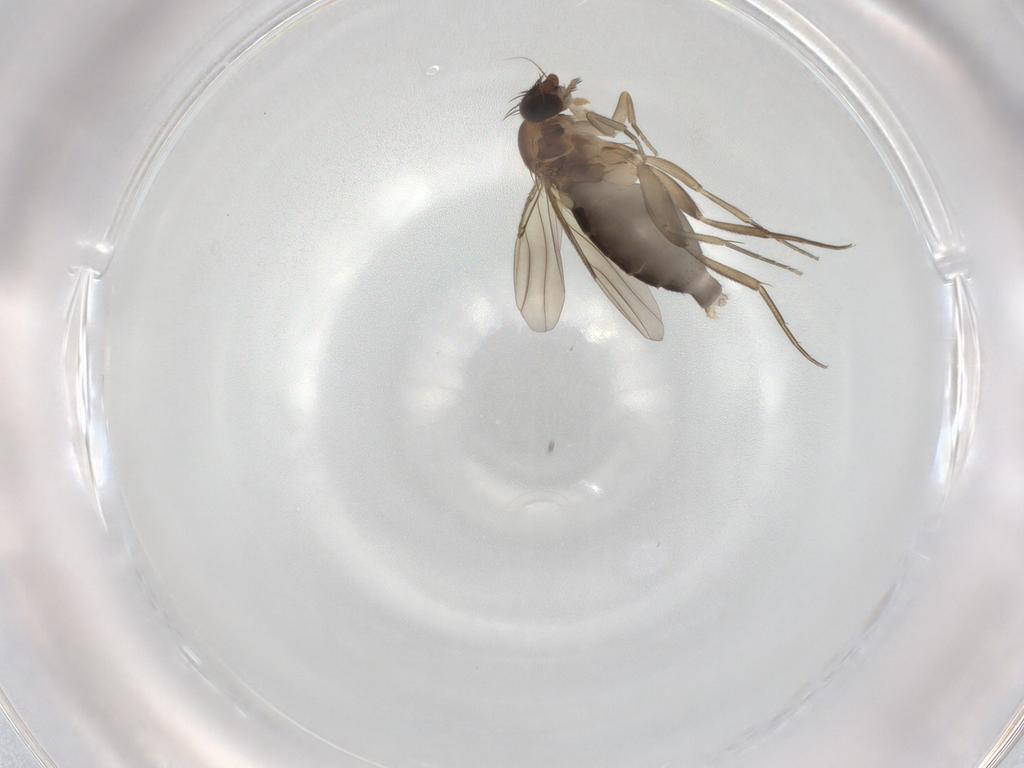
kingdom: Animalia
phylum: Arthropoda
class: Insecta
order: Diptera
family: Phoridae
